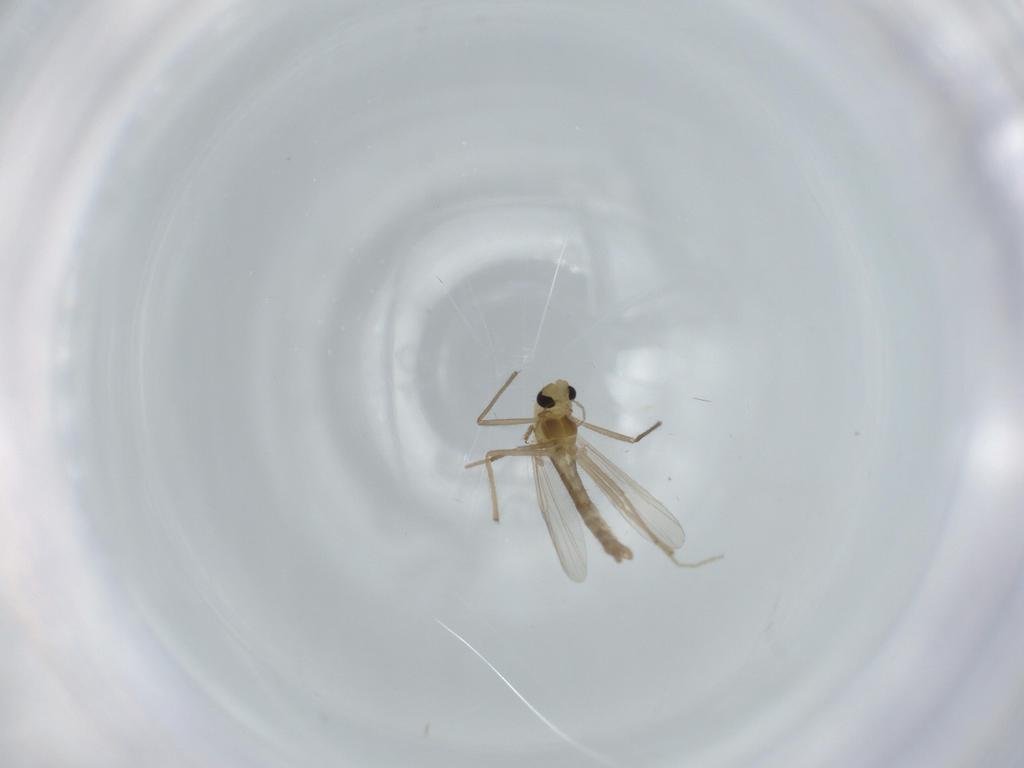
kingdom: Animalia
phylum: Arthropoda
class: Insecta
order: Diptera
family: Chironomidae
